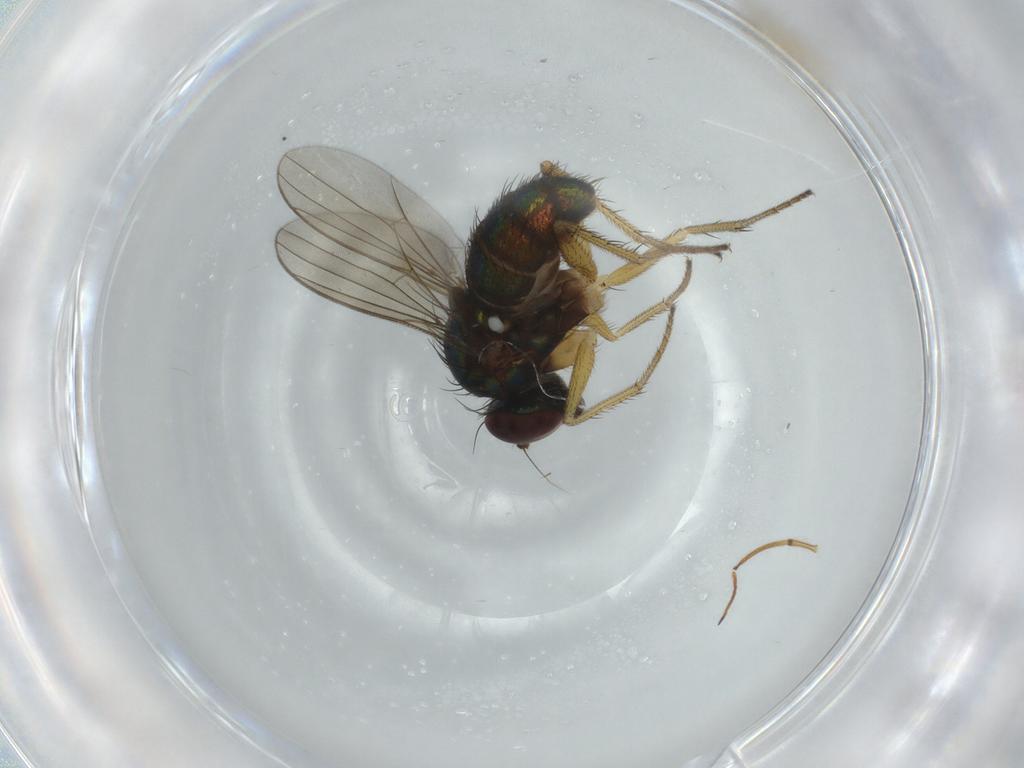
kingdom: Animalia
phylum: Arthropoda
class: Insecta
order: Diptera
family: Dolichopodidae
